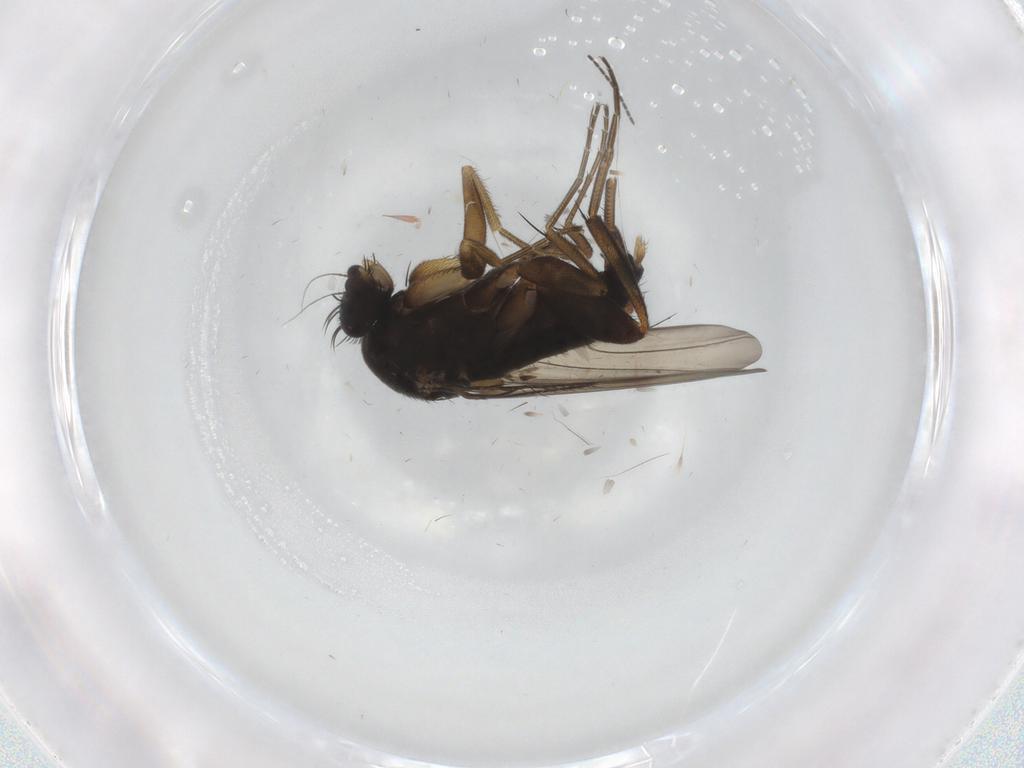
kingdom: Animalia
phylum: Arthropoda
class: Insecta
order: Diptera
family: Phoridae
